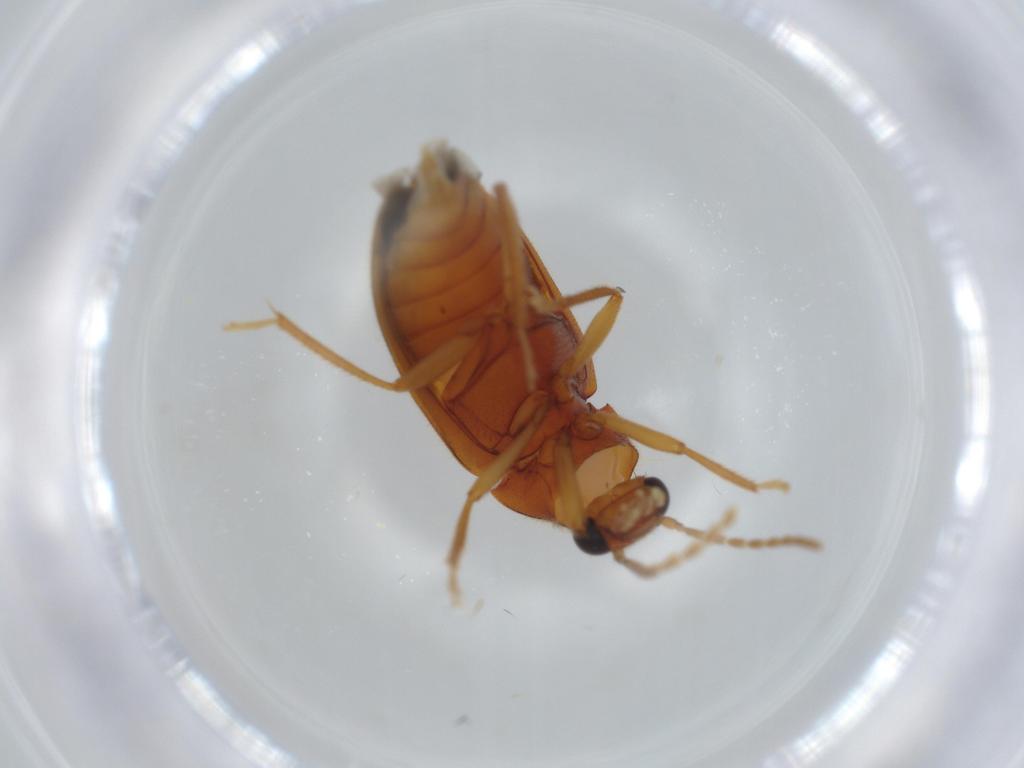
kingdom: Animalia
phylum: Arthropoda
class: Insecta
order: Coleoptera
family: Ptilodactylidae
